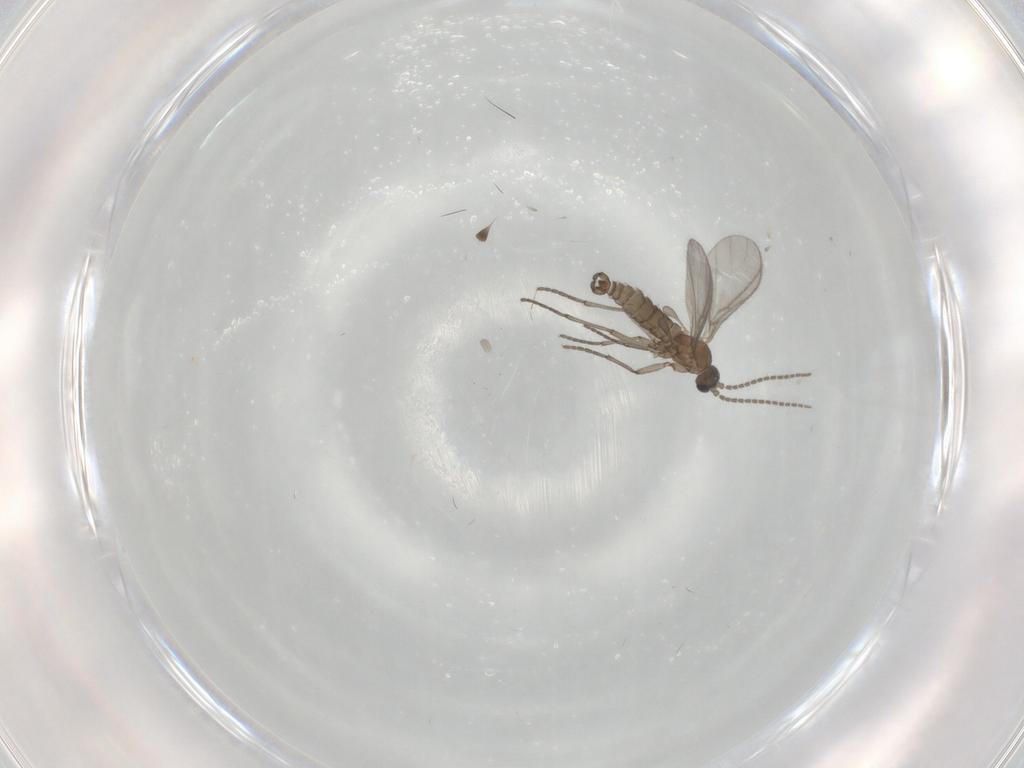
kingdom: Animalia
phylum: Arthropoda
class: Insecta
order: Diptera
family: Sciaridae
